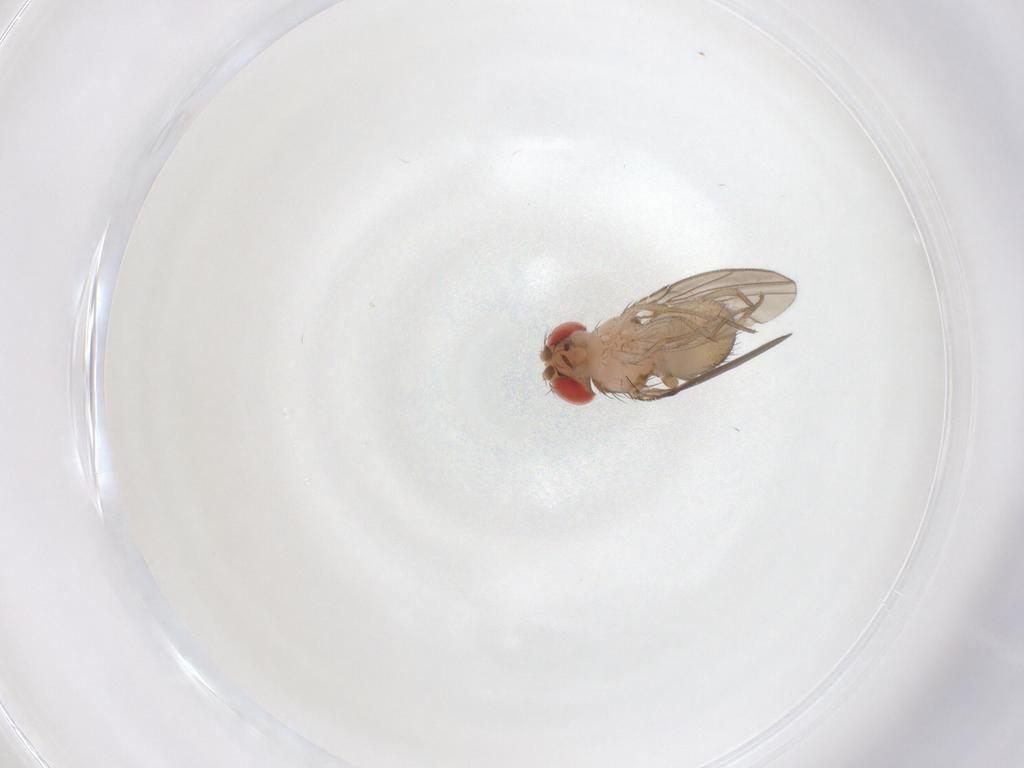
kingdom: Animalia
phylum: Arthropoda
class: Insecta
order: Diptera
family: Drosophilidae
